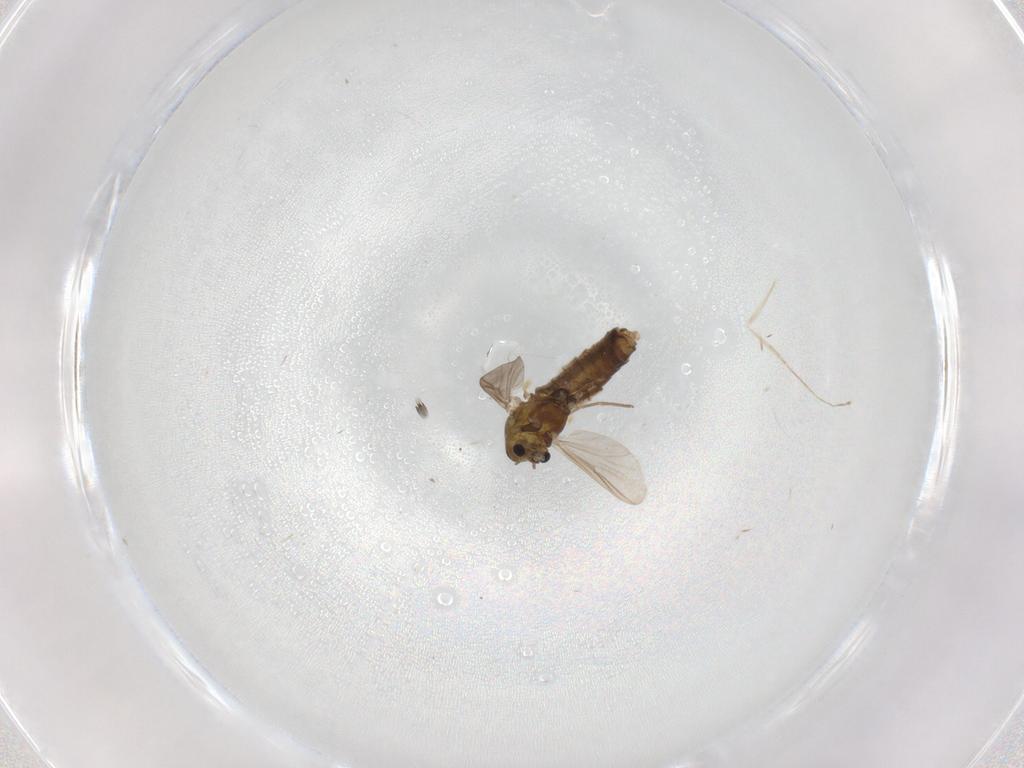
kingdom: Animalia
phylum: Arthropoda
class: Insecta
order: Diptera
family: Chironomidae
